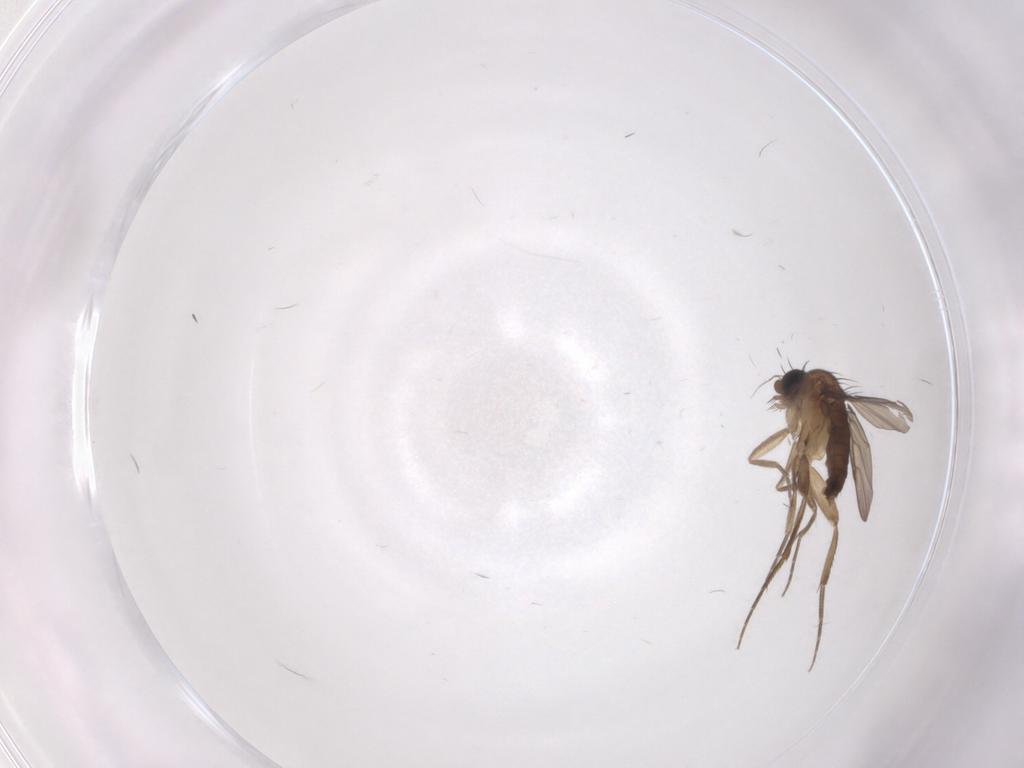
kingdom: Animalia
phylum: Arthropoda
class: Insecta
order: Diptera
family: Phoridae
